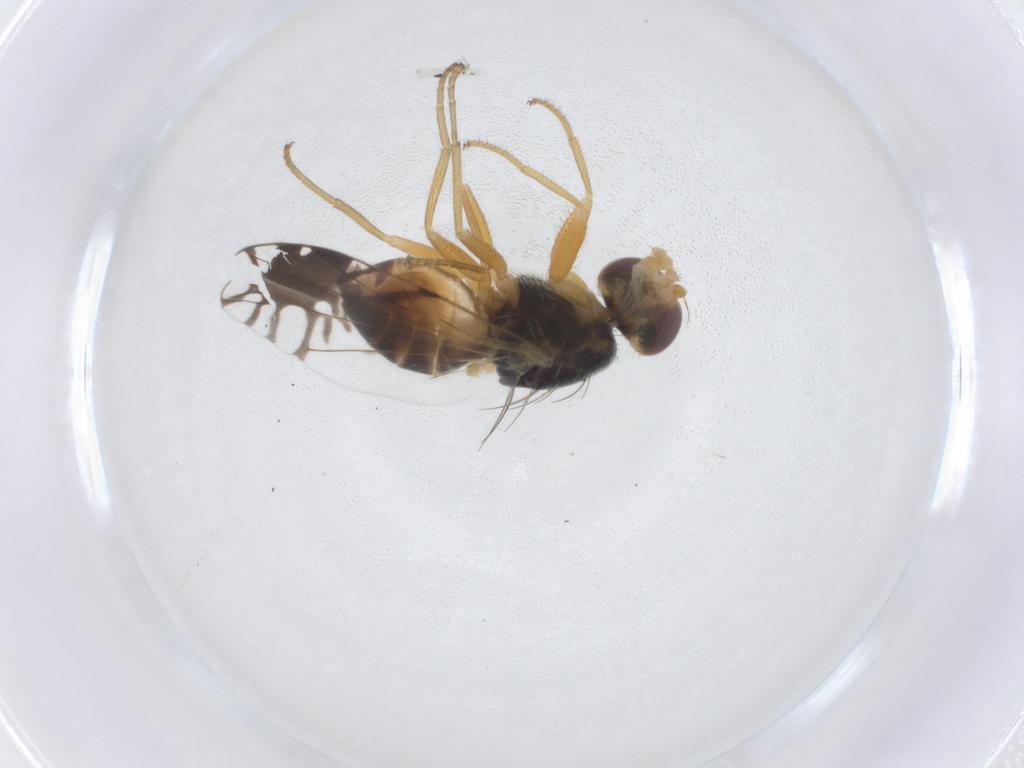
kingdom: Animalia
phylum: Arthropoda
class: Insecta
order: Diptera
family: Tephritidae
